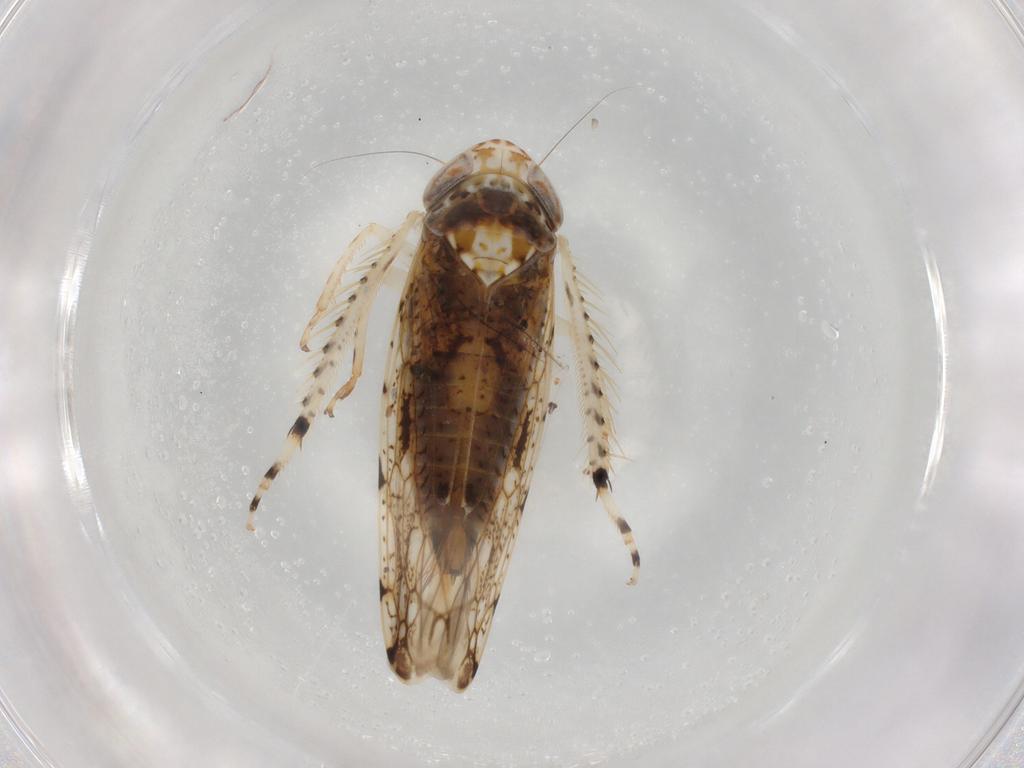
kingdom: Animalia
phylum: Arthropoda
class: Insecta
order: Hemiptera
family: Cicadellidae
